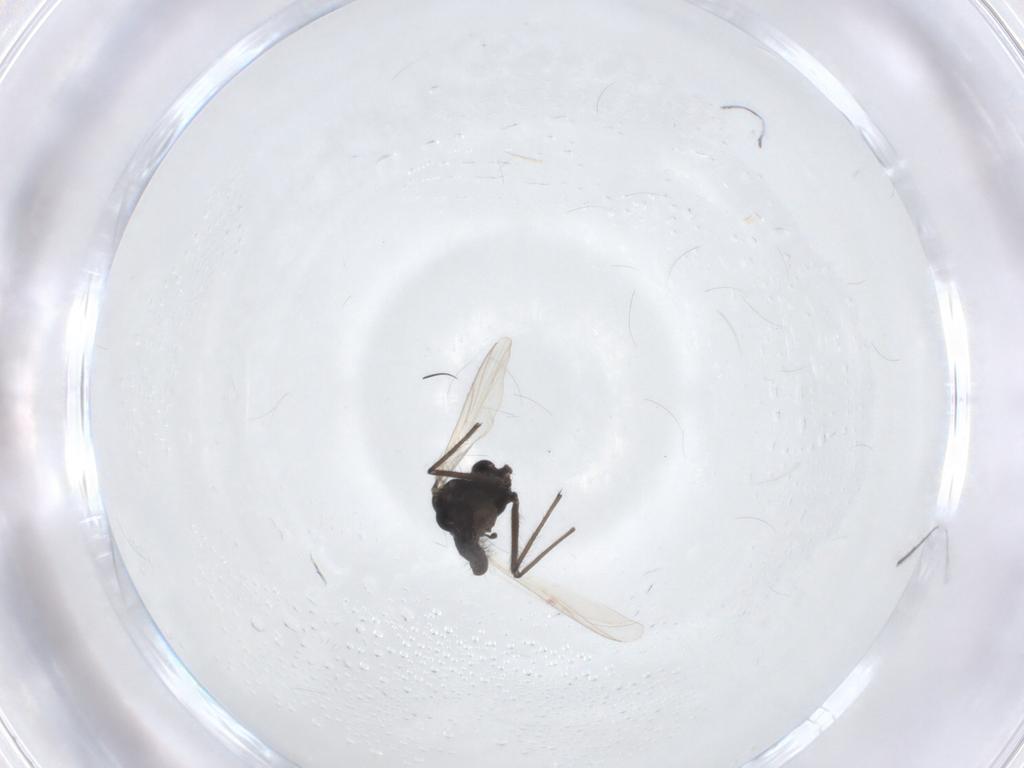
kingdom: Animalia
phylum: Arthropoda
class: Insecta
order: Diptera
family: Chironomidae
